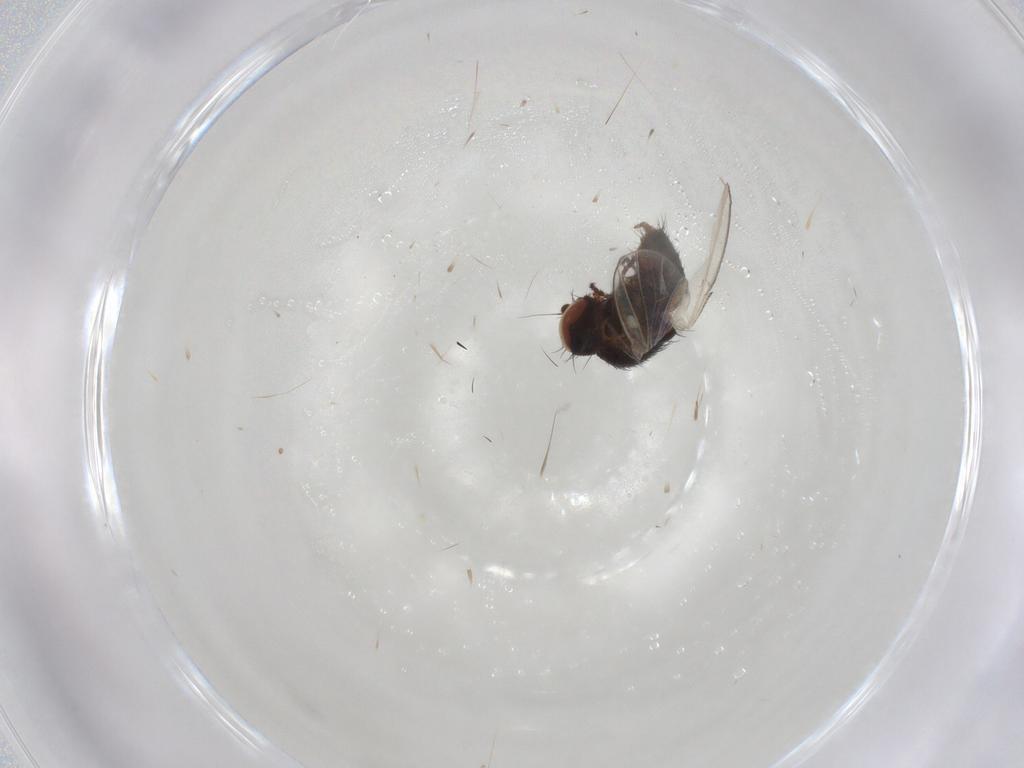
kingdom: Animalia
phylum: Arthropoda
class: Insecta
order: Diptera
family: Milichiidae
